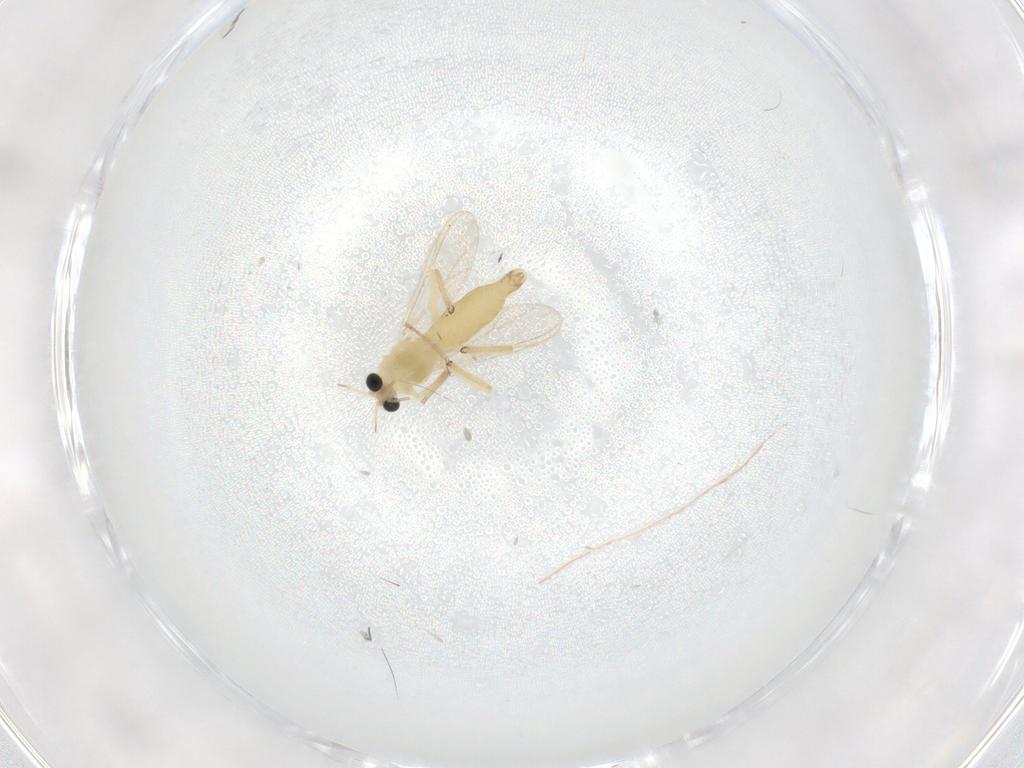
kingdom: Animalia
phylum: Arthropoda
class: Insecta
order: Diptera
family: Chironomidae
